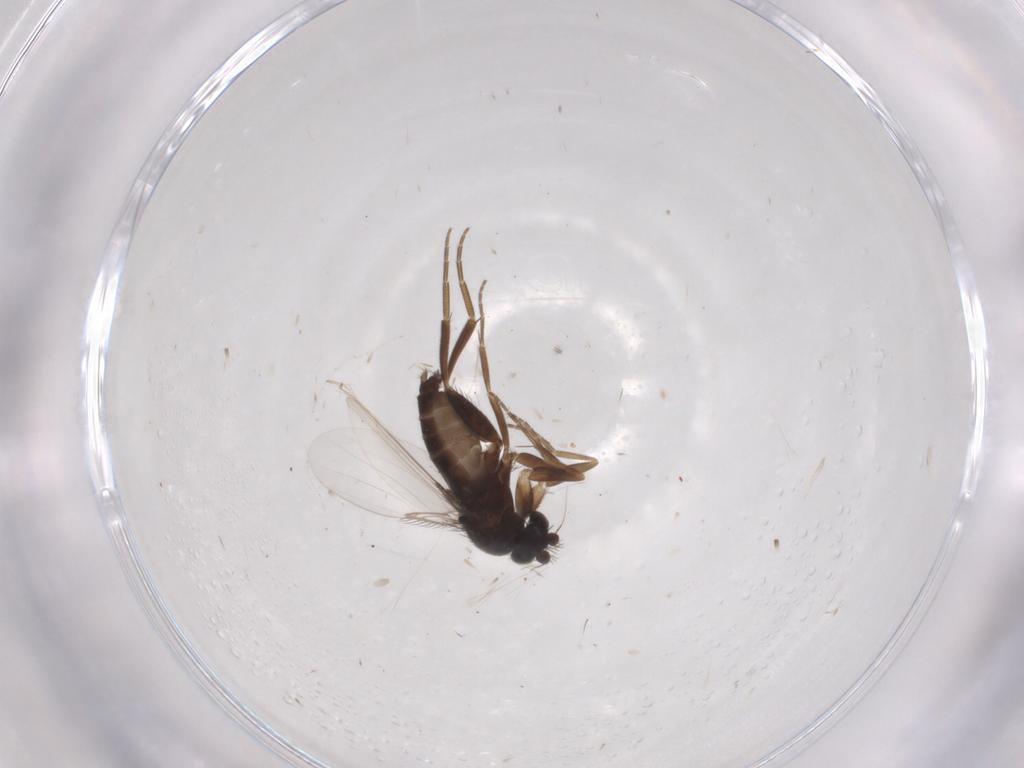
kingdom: Animalia
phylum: Arthropoda
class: Insecta
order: Diptera
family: Phoridae
